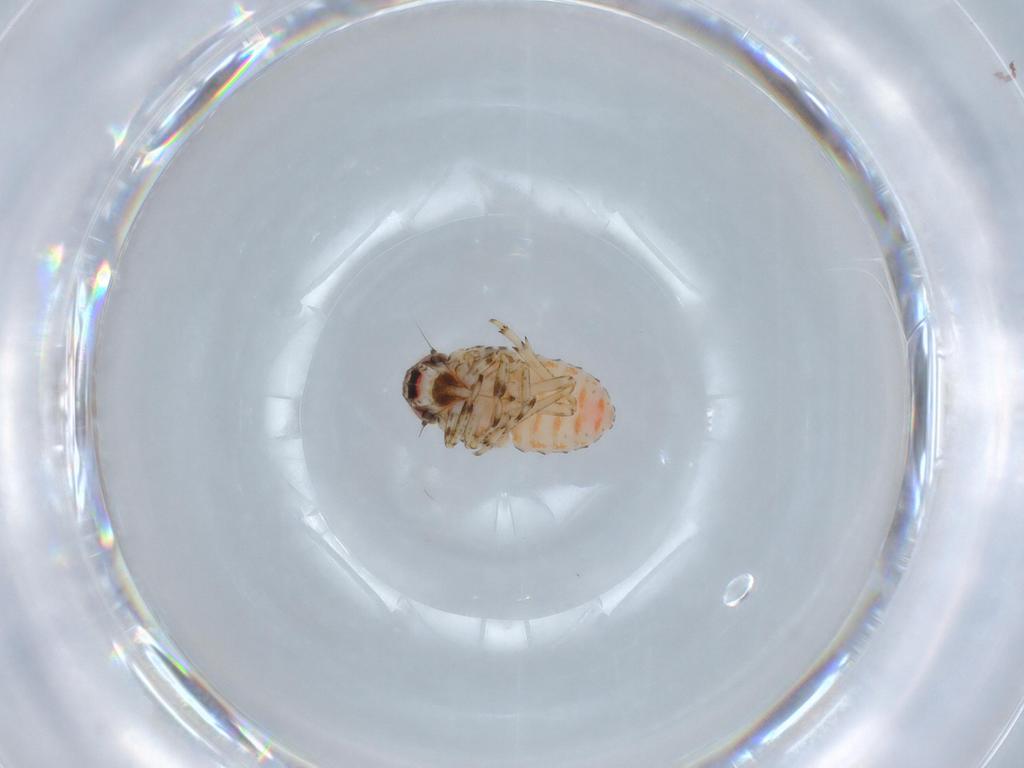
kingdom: Animalia
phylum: Arthropoda
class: Insecta
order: Hemiptera
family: Issidae
